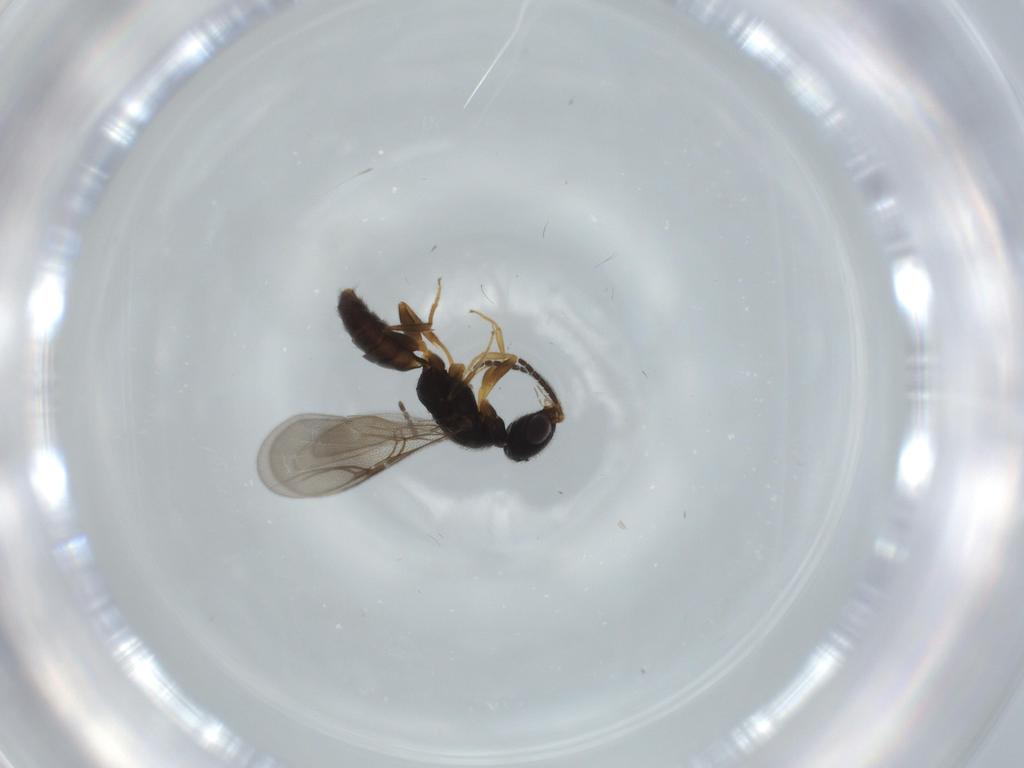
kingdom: Animalia
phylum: Arthropoda
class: Insecta
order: Hymenoptera
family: Bethylidae
